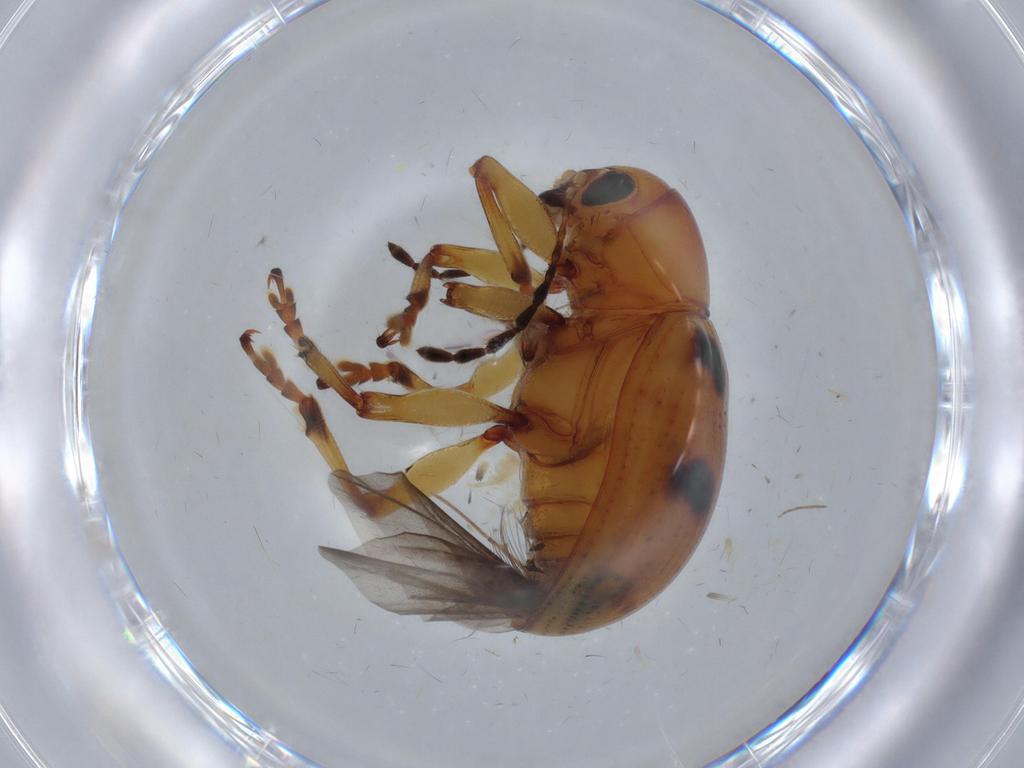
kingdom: Animalia
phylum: Arthropoda
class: Insecta
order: Coleoptera
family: Chrysomelidae
